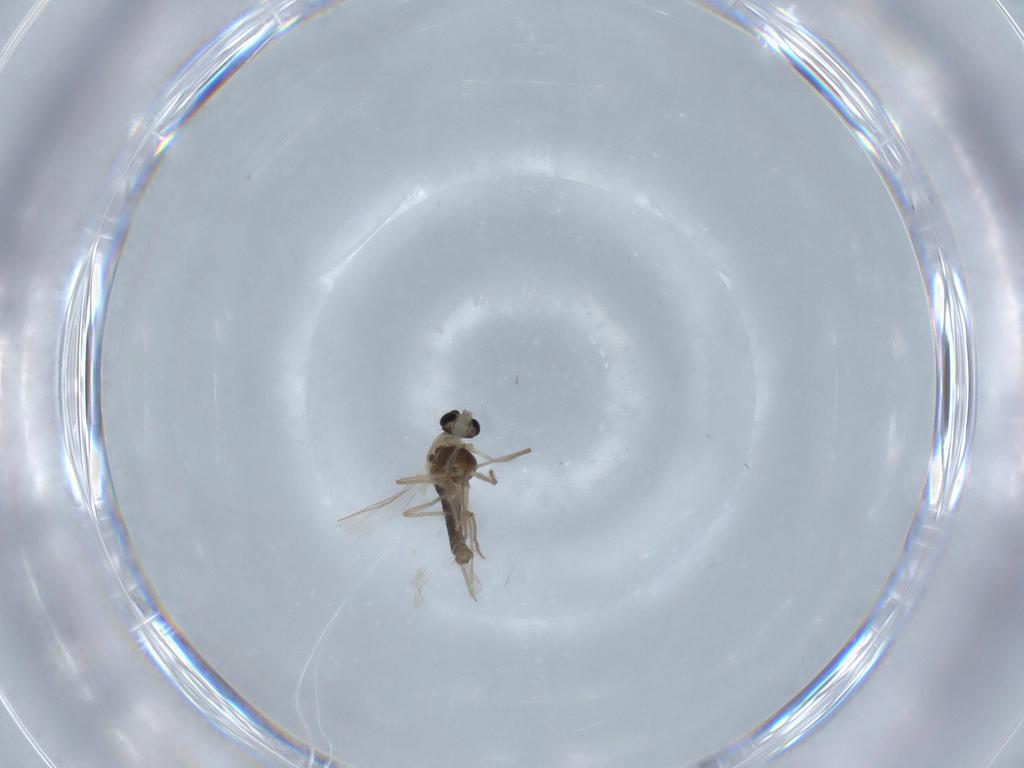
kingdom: Animalia
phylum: Arthropoda
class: Insecta
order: Diptera
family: Chironomidae
